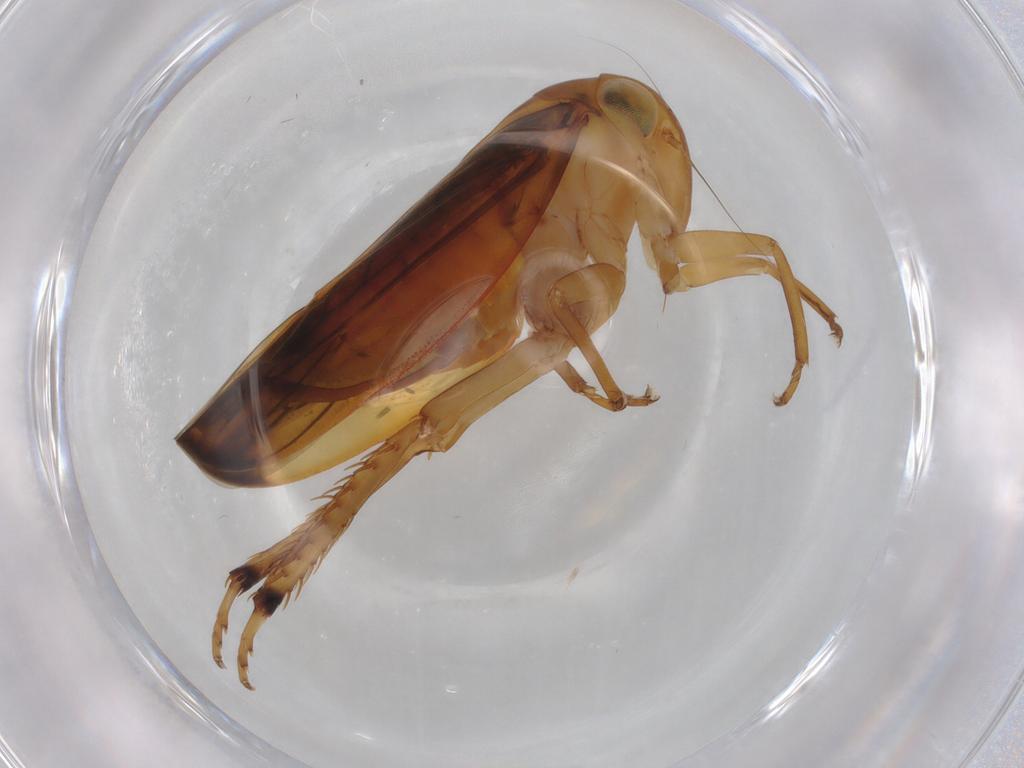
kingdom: Animalia
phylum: Arthropoda
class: Insecta
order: Hemiptera
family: Cicadellidae
